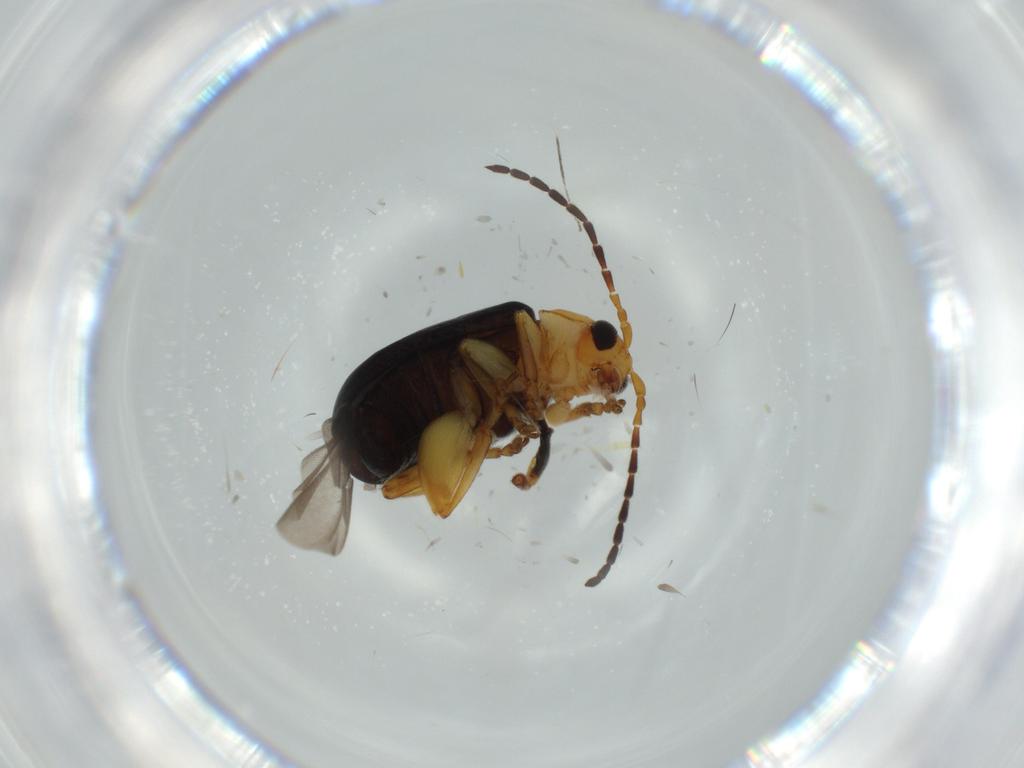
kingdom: Animalia
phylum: Arthropoda
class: Insecta
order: Coleoptera
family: Chrysomelidae
